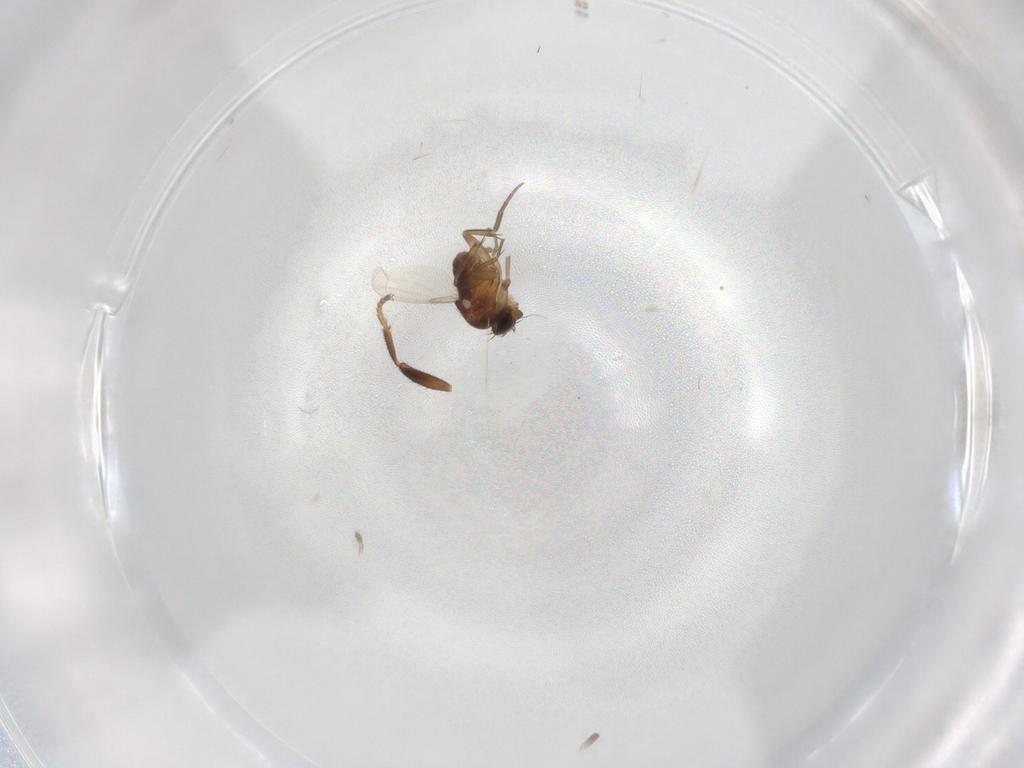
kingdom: Animalia
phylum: Arthropoda
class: Insecta
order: Diptera
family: Phoridae
